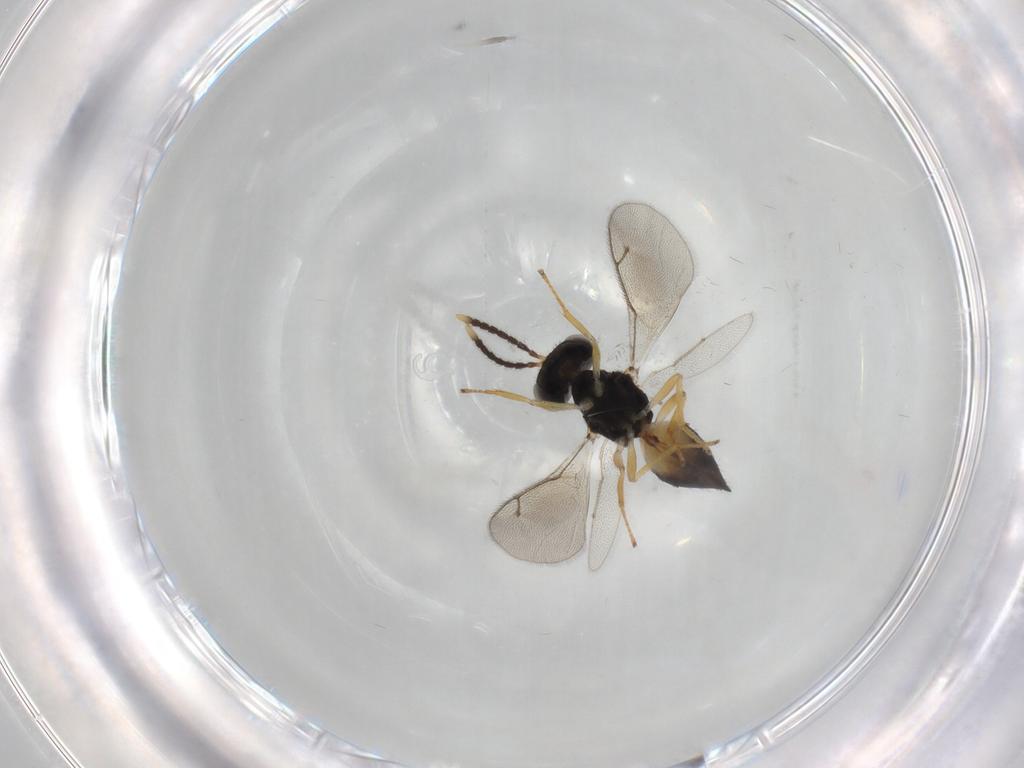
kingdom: Animalia
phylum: Arthropoda
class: Insecta
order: Hymenoptera
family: Pteromalidae
